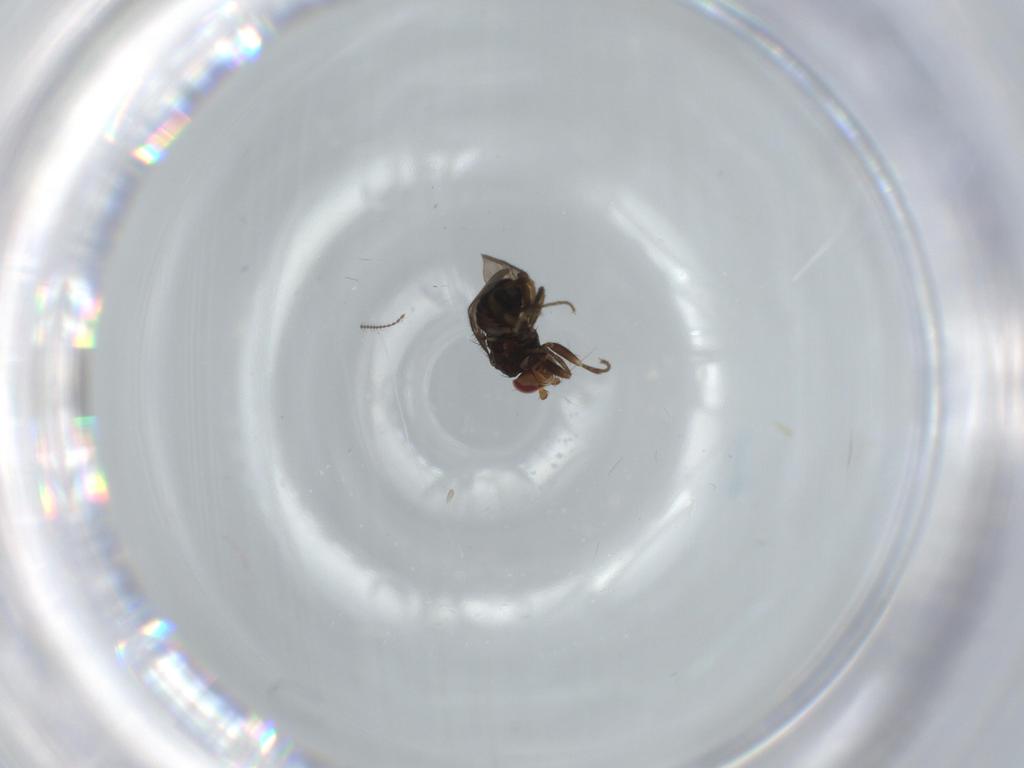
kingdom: Animalia
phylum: Arthropoda
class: Insecta
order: Diptera
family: Sphaeroceridae
